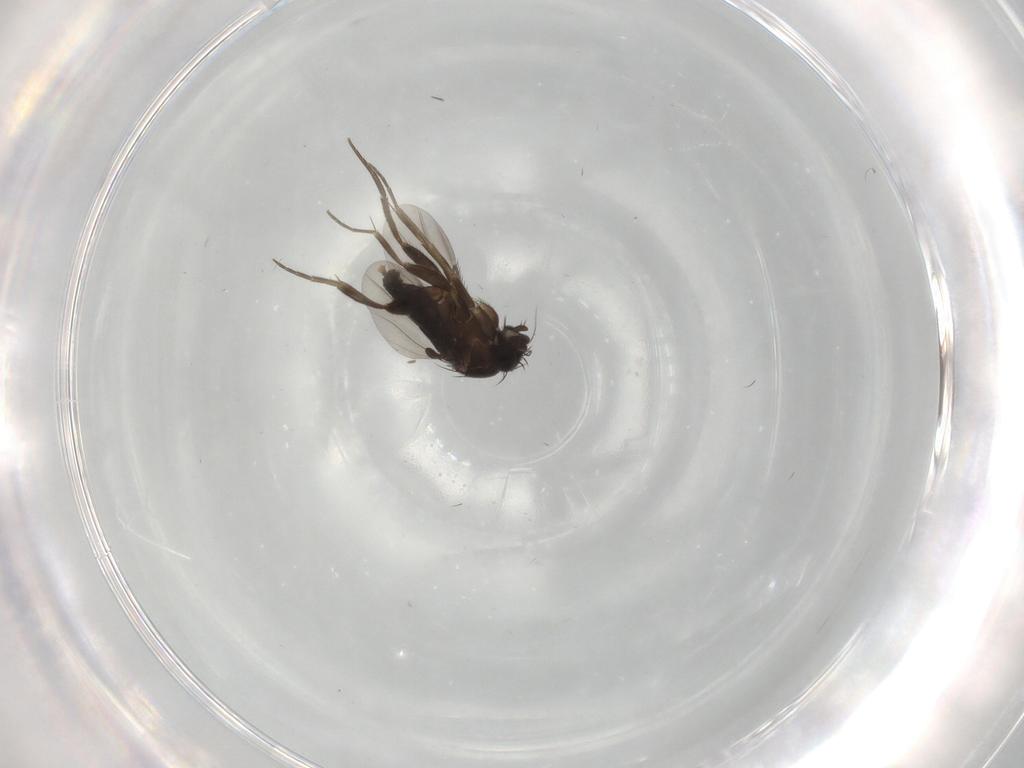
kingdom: Animalia
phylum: Arthropoda
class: Insecta
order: Diptera
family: Phoridae
